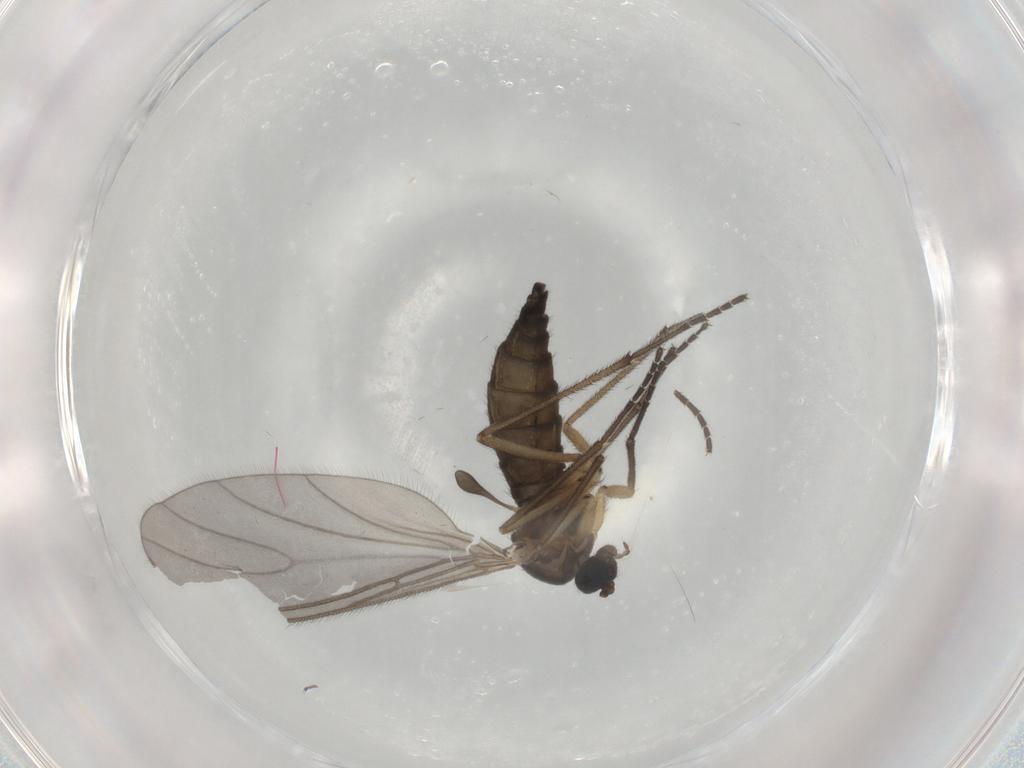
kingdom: Animalia
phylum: Arthropoda
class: Insecta
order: Diptera
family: Sciaridae
